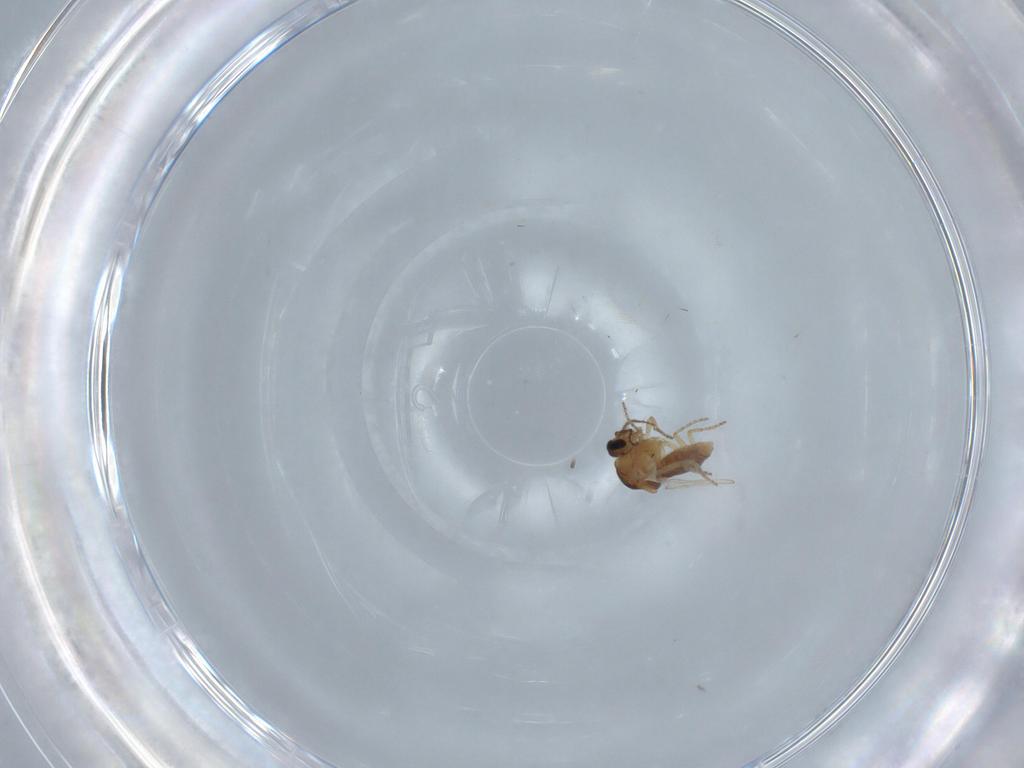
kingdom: Animalia
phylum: Arthropoda
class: Insecta
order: Diptera
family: Ceratopogonidae
